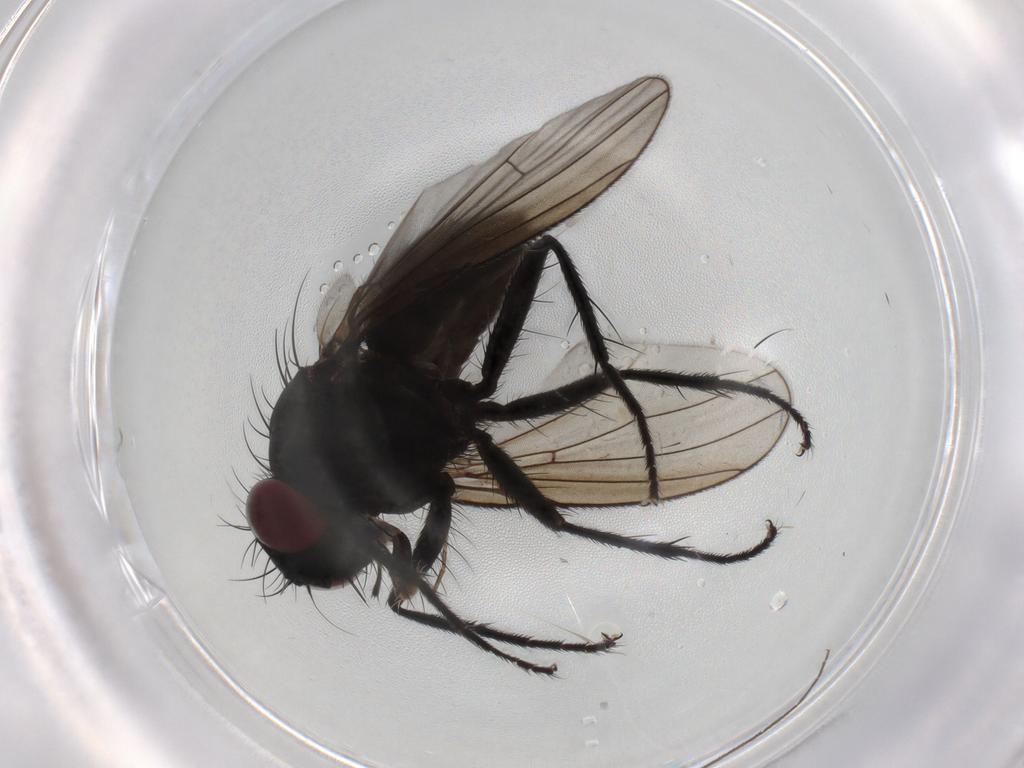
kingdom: Animalia
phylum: Arthropoda
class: Insecta
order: Diptera
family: Muscidae
